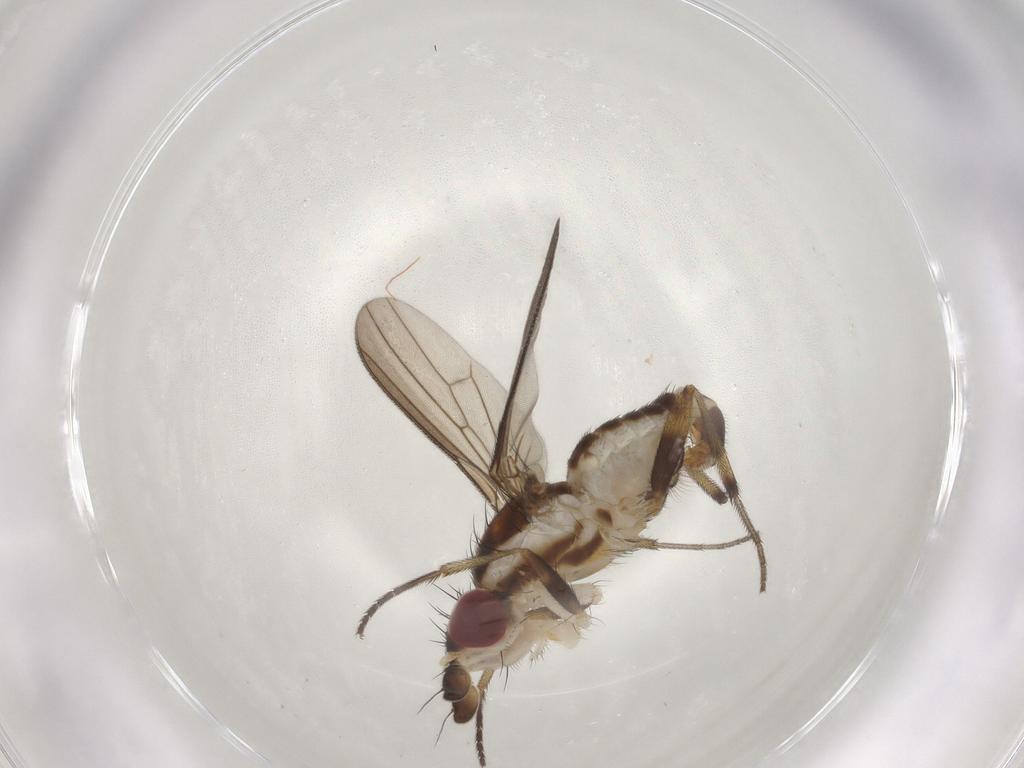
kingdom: Animalia
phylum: Arthropoda
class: Insecta
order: Diptera
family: Cypselosomatidae
